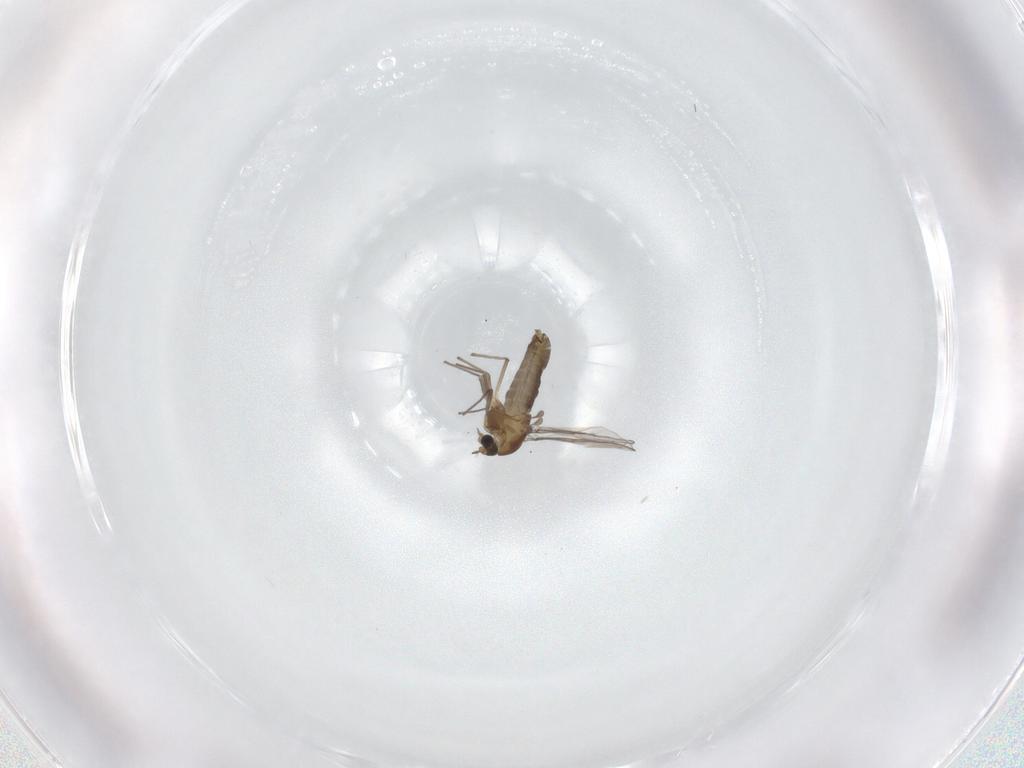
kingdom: Animalia
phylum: Arthropoda
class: Insecta
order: Diptera
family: Chironomidae
